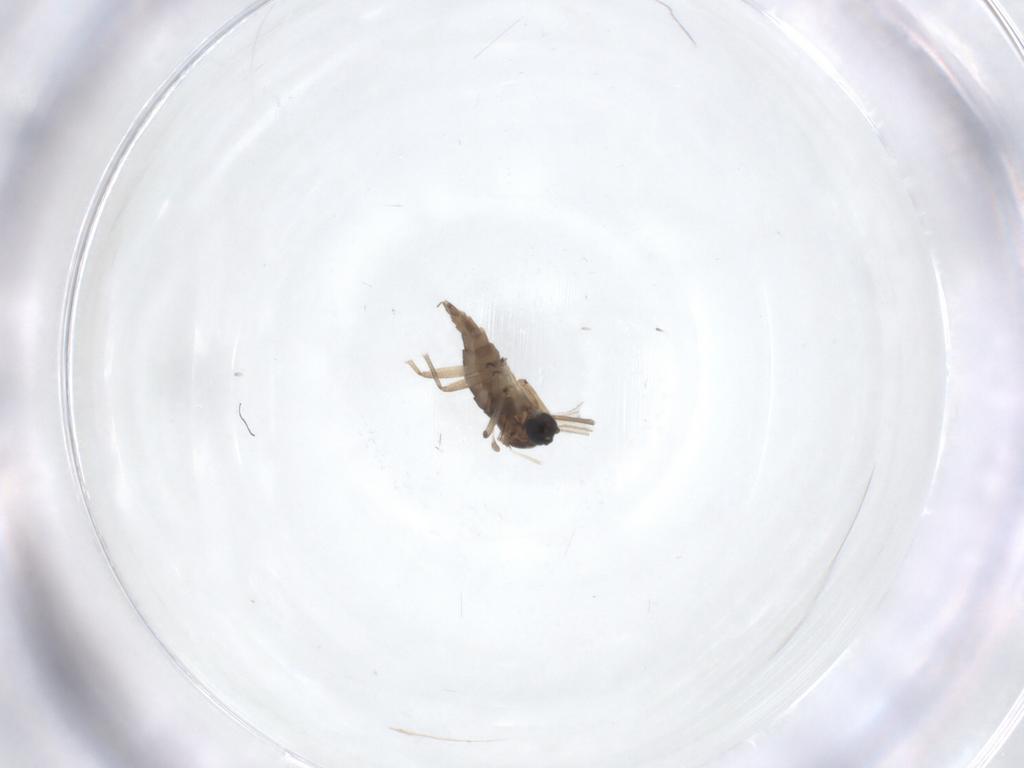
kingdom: Animalia
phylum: Arthropoda
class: Insecta
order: Diptera
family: Sciaridae
